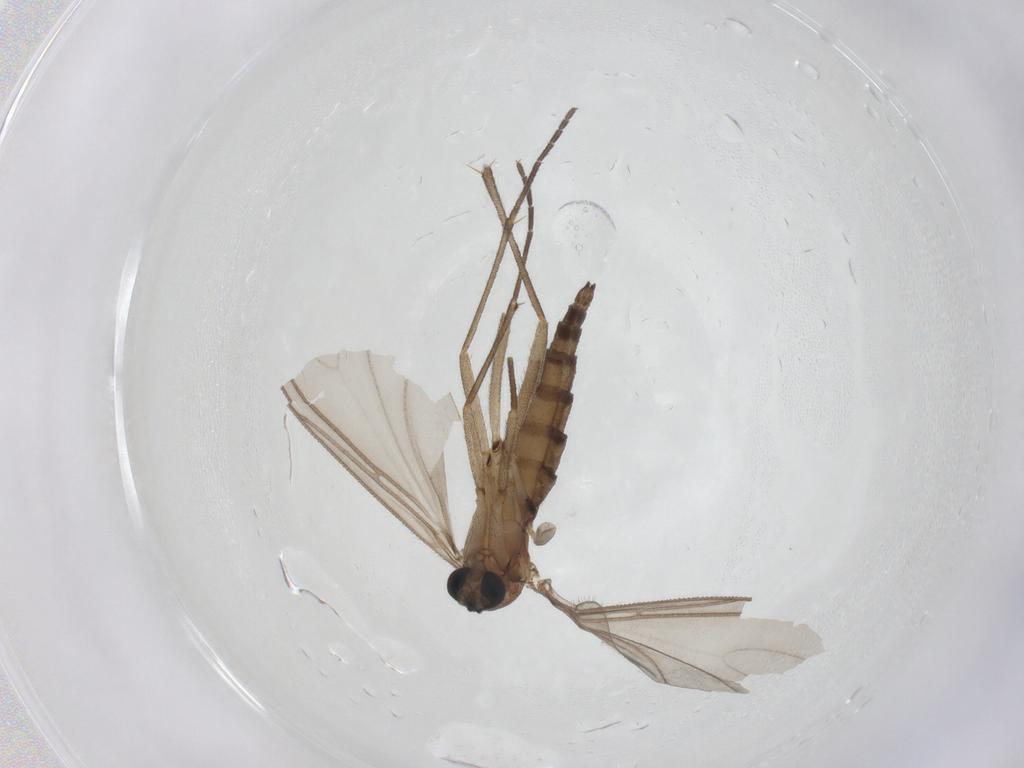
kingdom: Animalia
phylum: Arthropoda
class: Insecta
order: Diptera
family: Sciaridae
